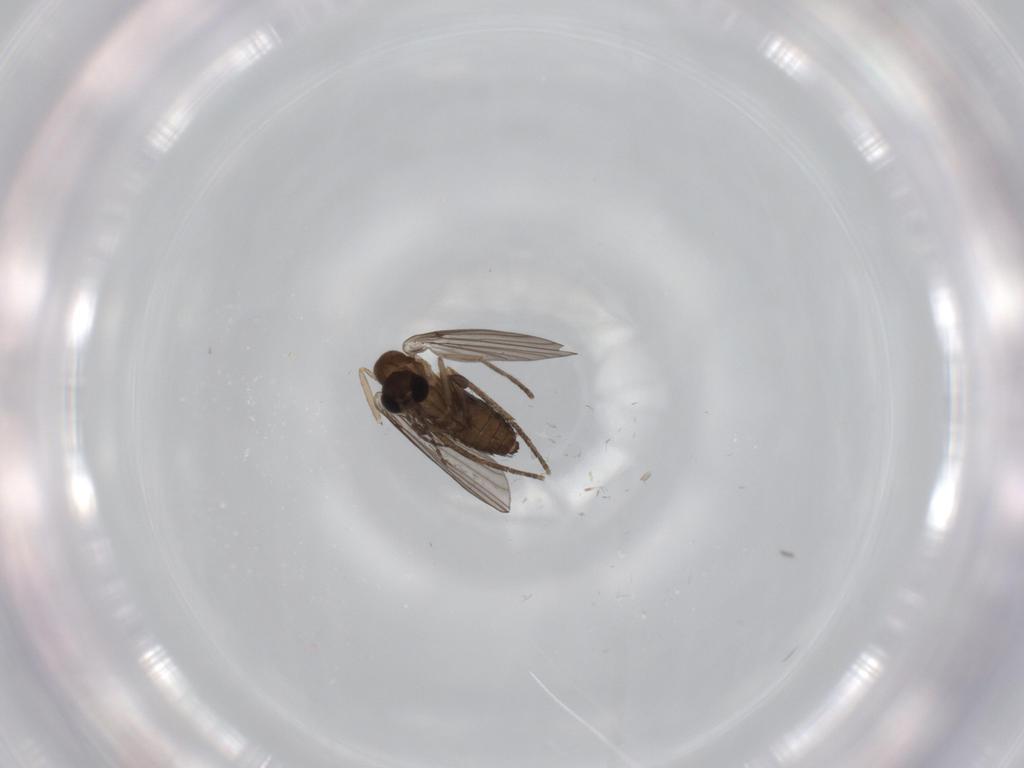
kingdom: Animalia
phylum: Arthropoda
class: Insecta
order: Diptera
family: Psychodidae
